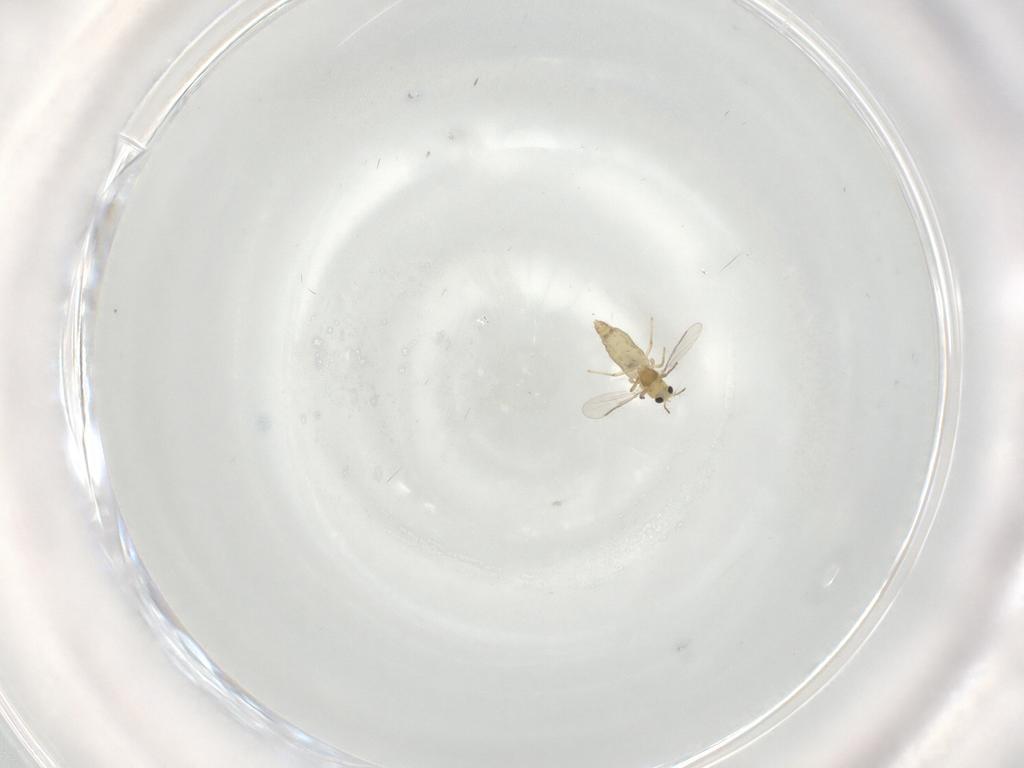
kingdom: Animalia
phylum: Arthropoda
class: Insecta
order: Diptera
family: Chironomidae
